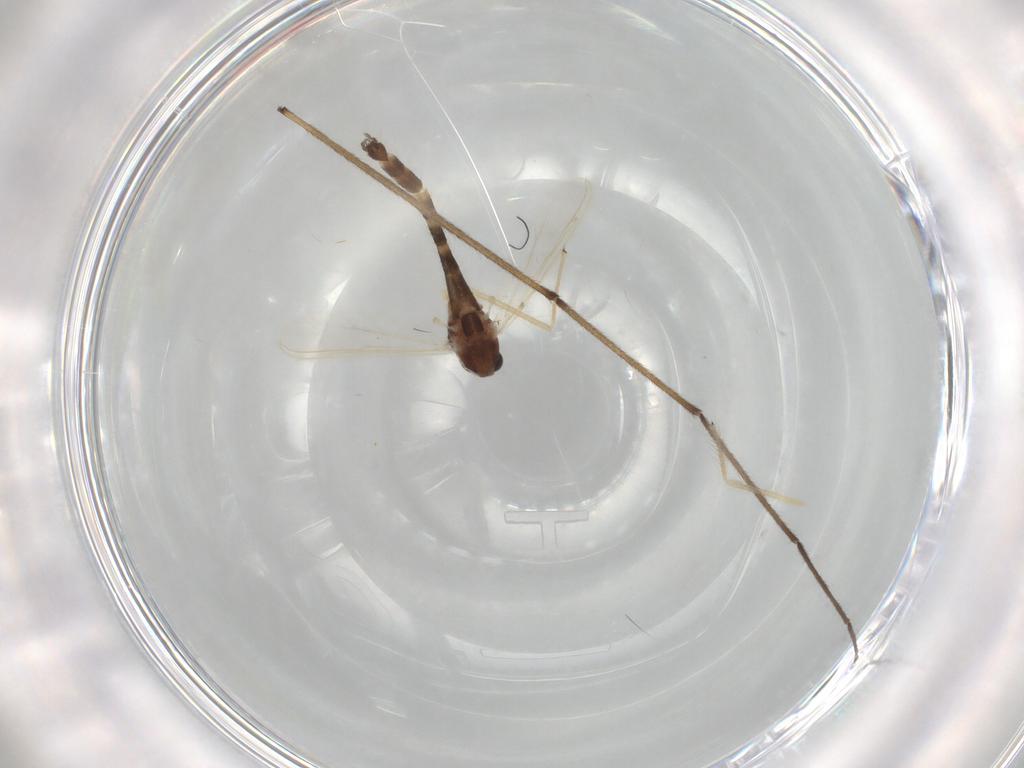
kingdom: Animalia
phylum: Arthropoda
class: Insecta
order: Diptera
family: Chironomidae
